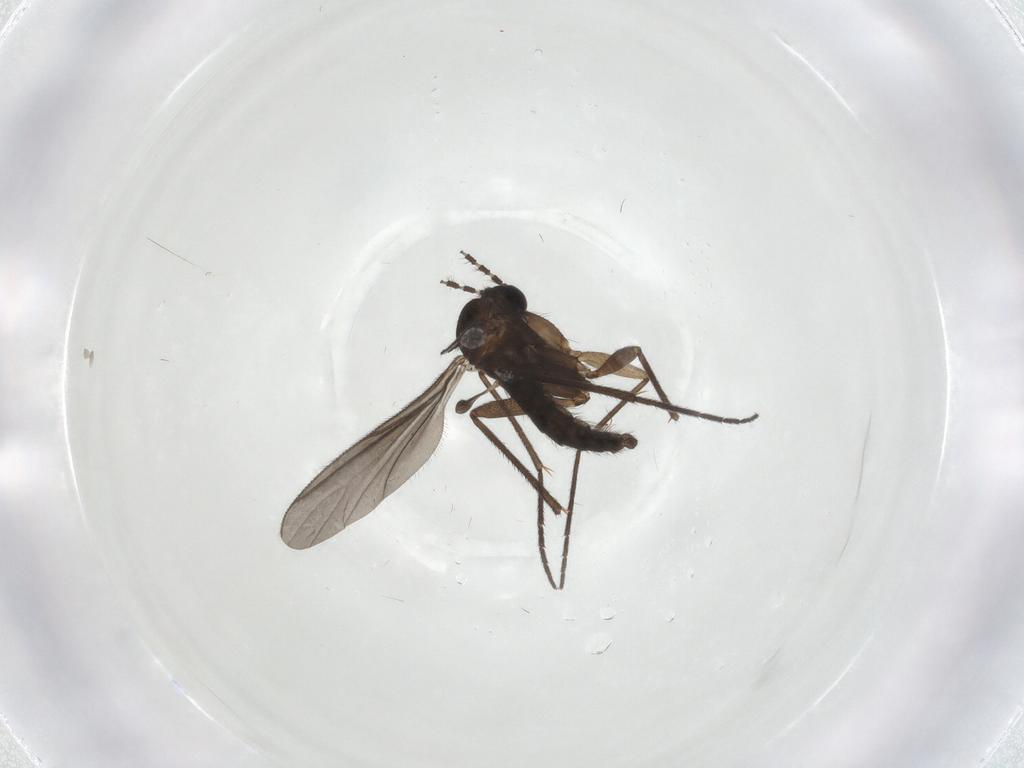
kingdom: Animalia
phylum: Arthropoda
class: Insecta
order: Diptera
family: Sciaridae
